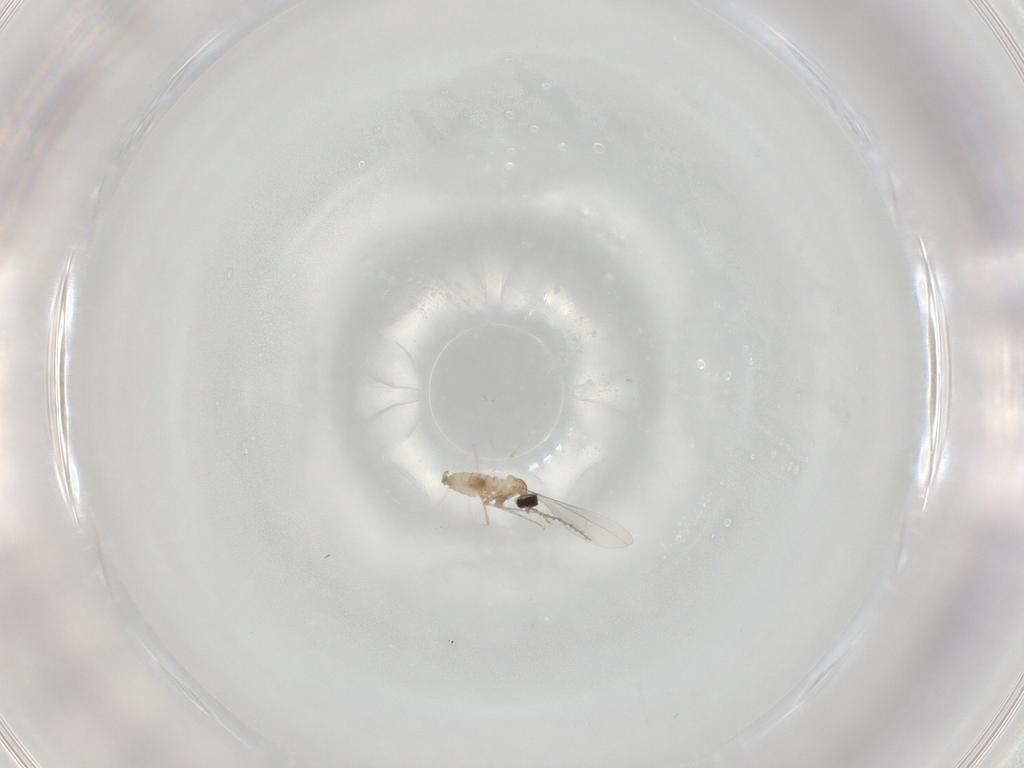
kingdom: Animalia
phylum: Arthropoda
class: Insecta
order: Diptera
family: Cecidomyiidae
